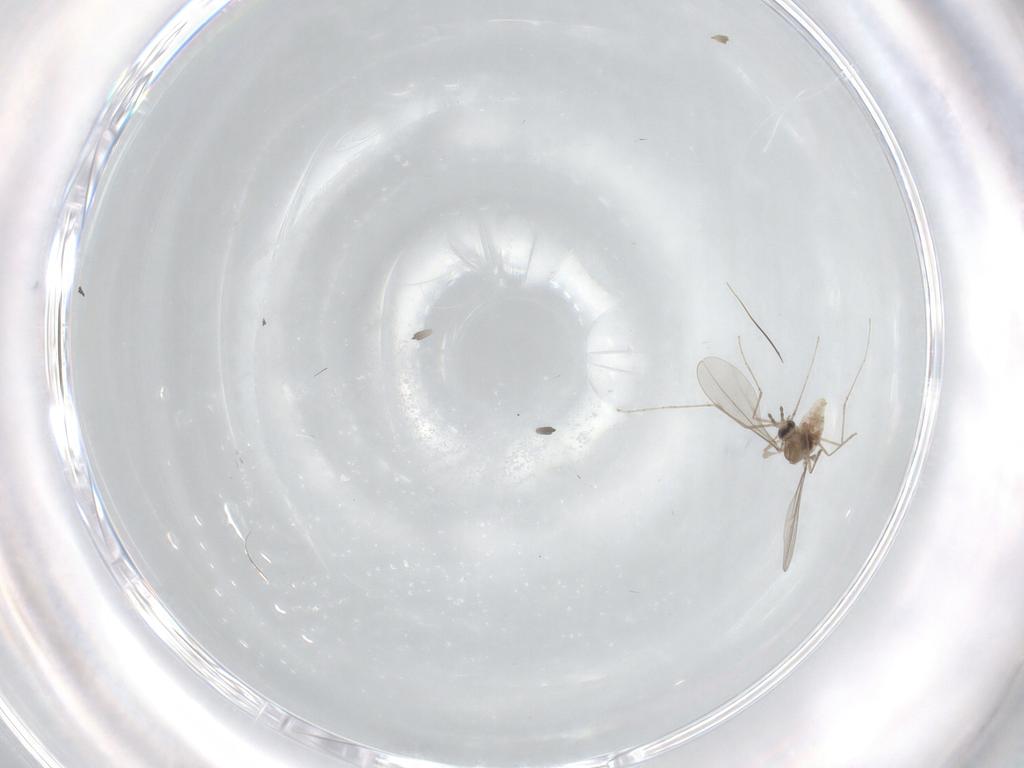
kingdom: Animalia
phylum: Arthropoda
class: Insecta
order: Diptera
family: Cecidomyiidae
